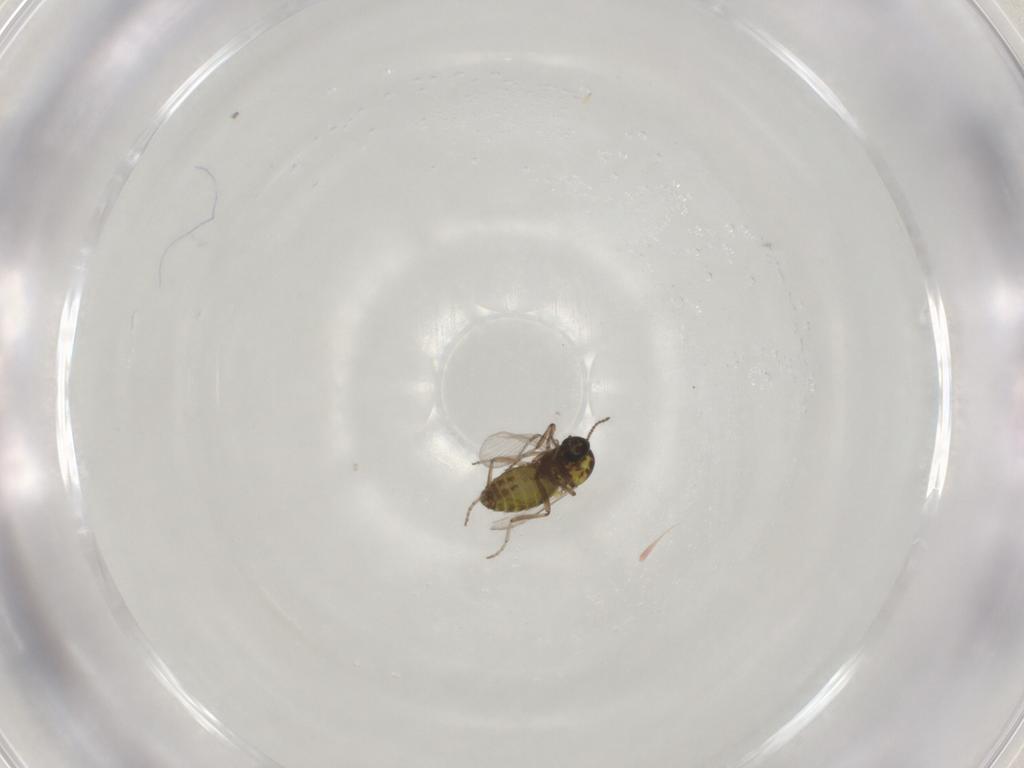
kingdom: Animalia
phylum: Arthropoda
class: Insecta
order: Diptera
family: Ceratopogonidae
